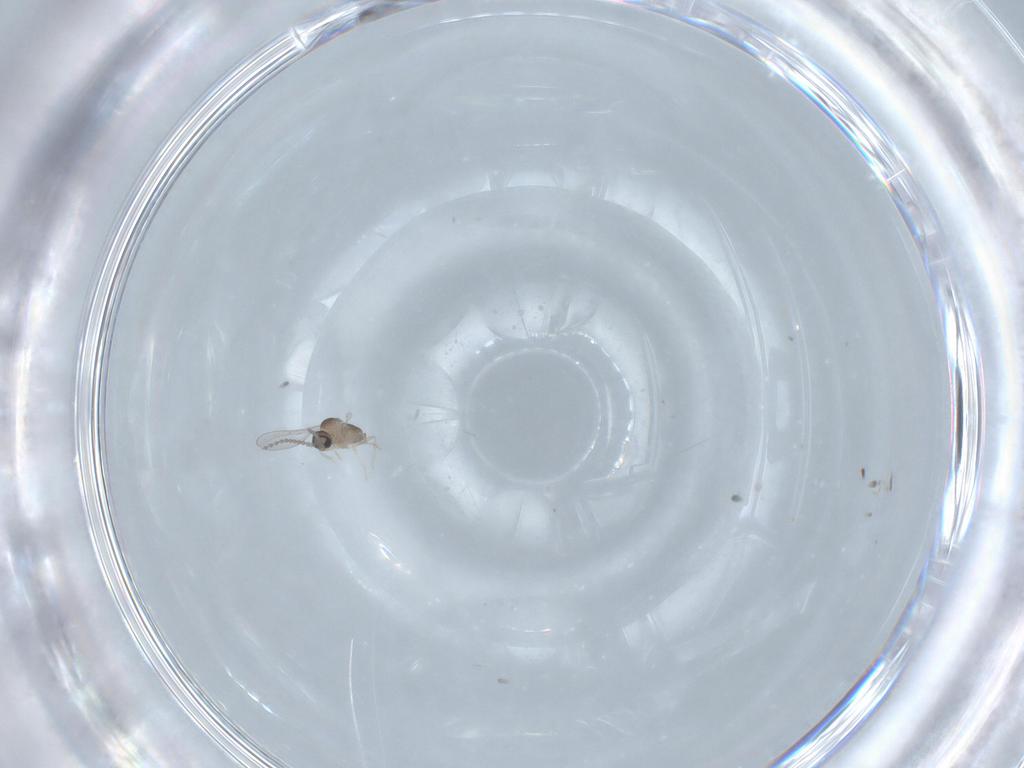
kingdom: Animalia
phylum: Arthropoda
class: Insecta
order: Diptera
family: Cecidomyiidae
